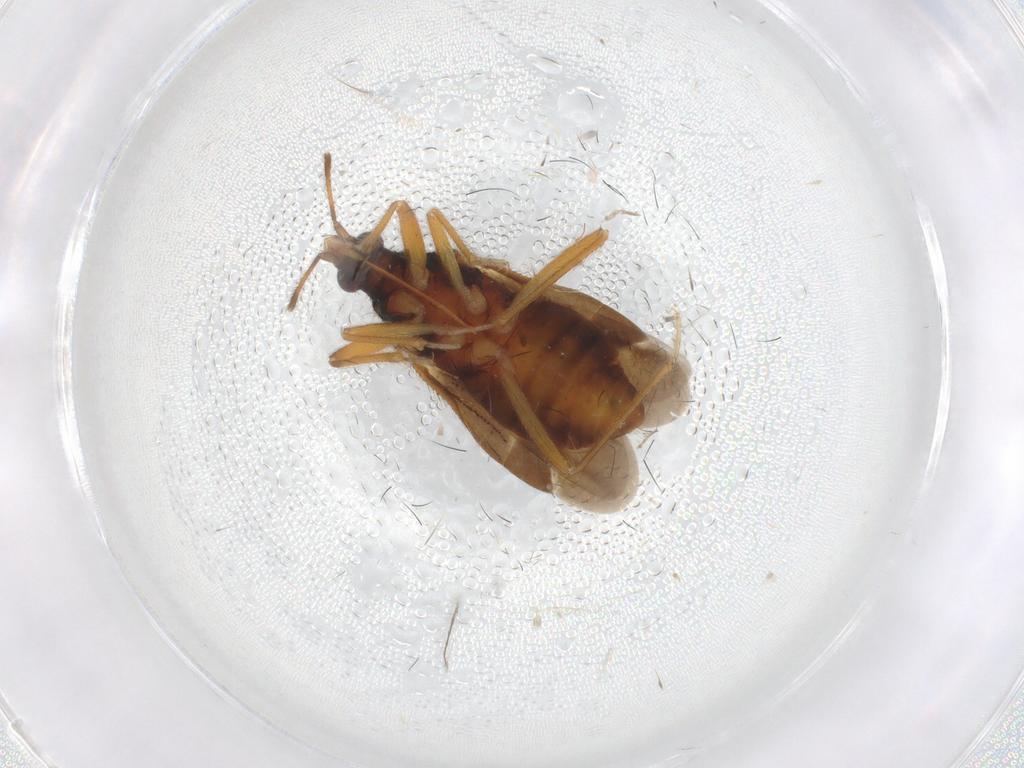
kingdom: Animalia
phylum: Arthropoda
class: Insecta
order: Hemiptera
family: Anthocoridae
